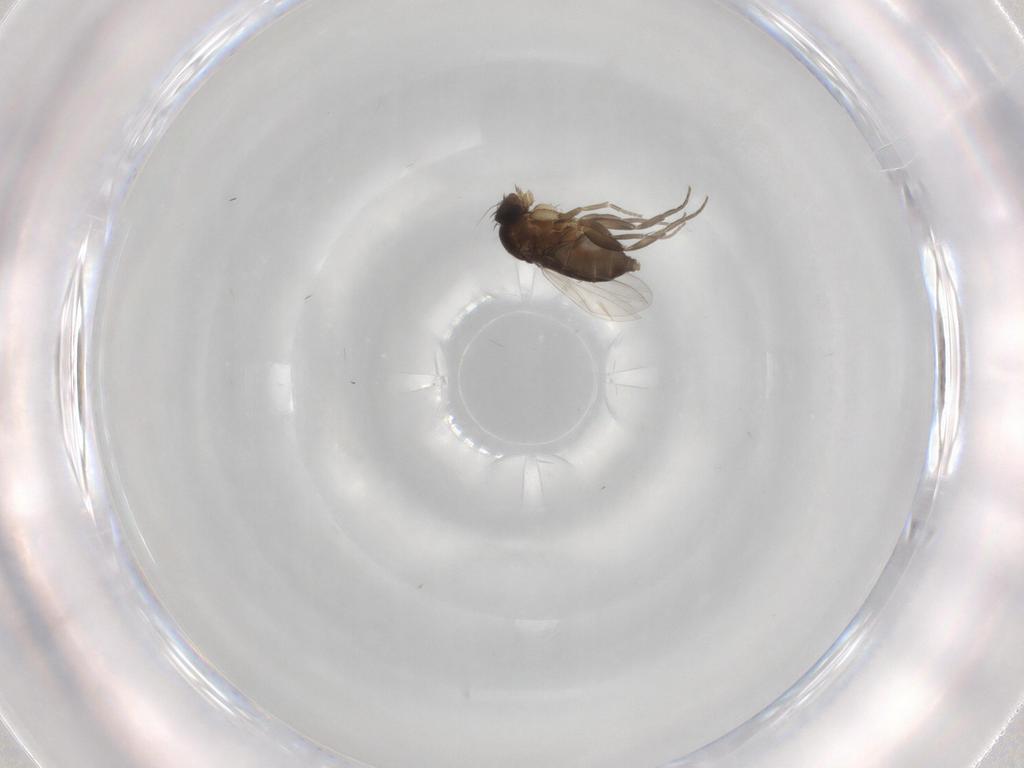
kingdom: Animalia
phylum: Arthropoda
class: Insecta
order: Diptera
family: Phoridae
